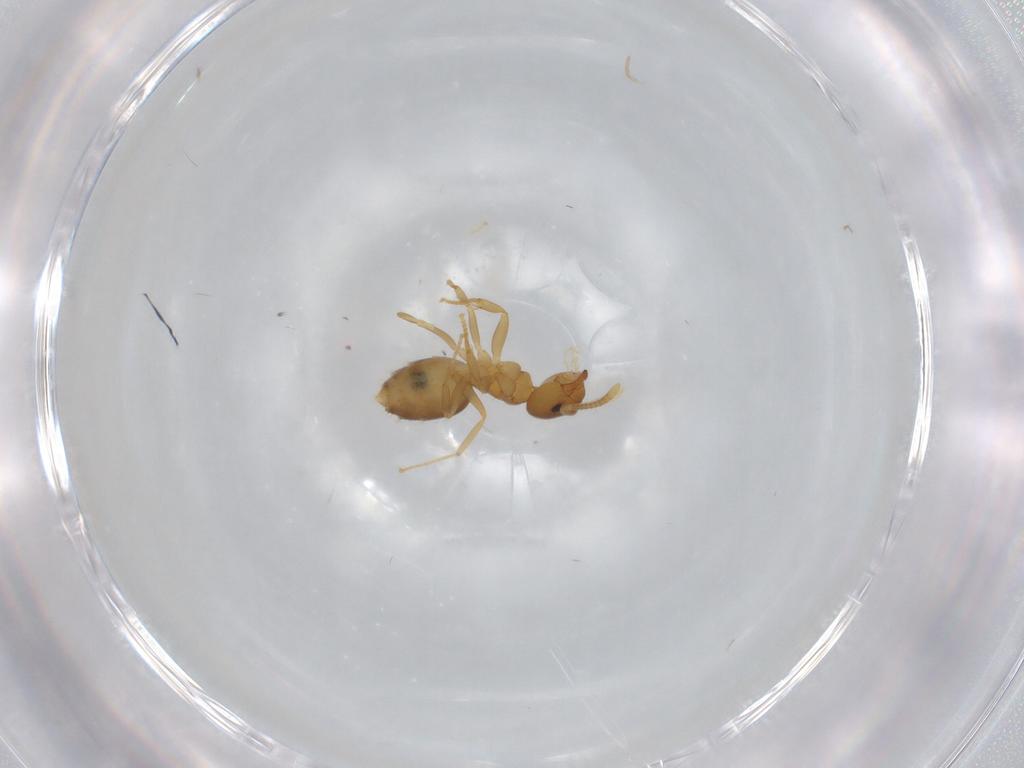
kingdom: Animalia
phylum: Arthropoda
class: Insecta
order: Hymenoptera
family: Formicidae
